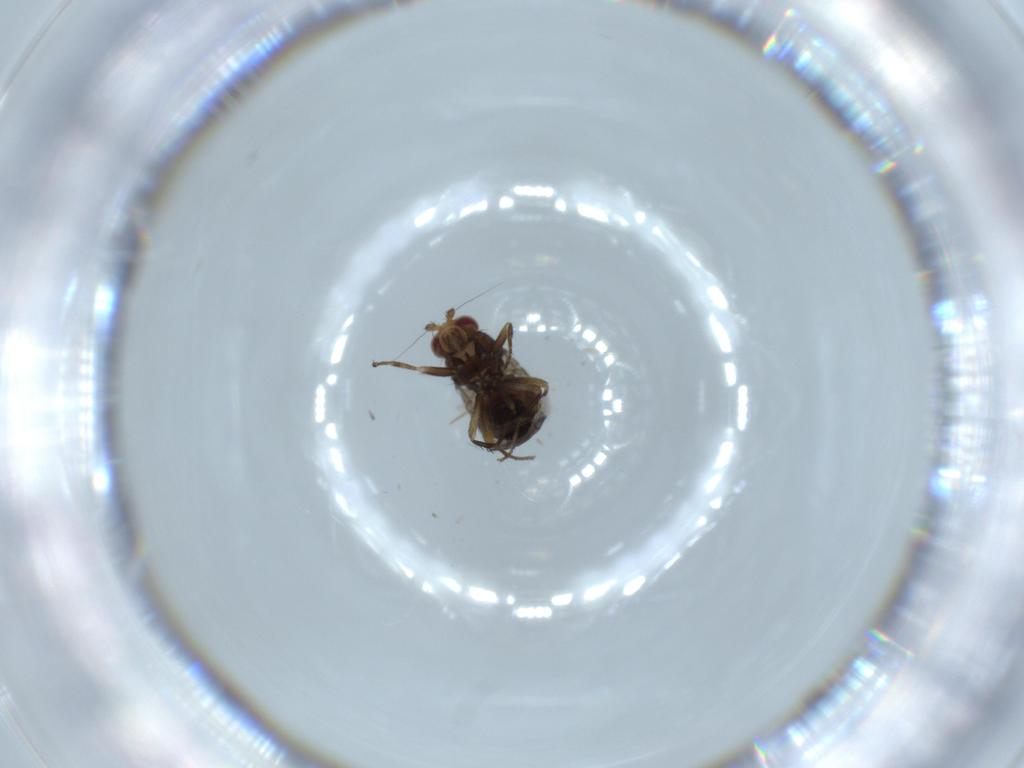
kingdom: Animalia
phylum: Arthropoda
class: Insecta
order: Diptera
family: Sphaeroceridae
